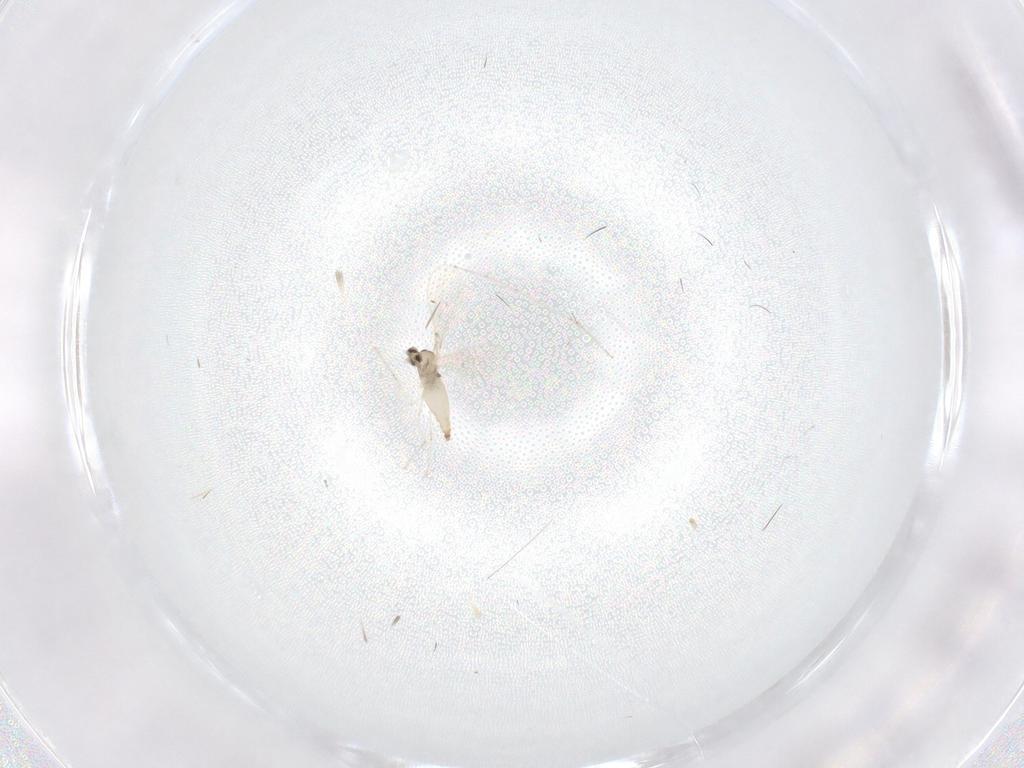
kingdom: Animalia
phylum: Arthropoda
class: Insecta
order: Diptera
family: Cecidomyiidae
